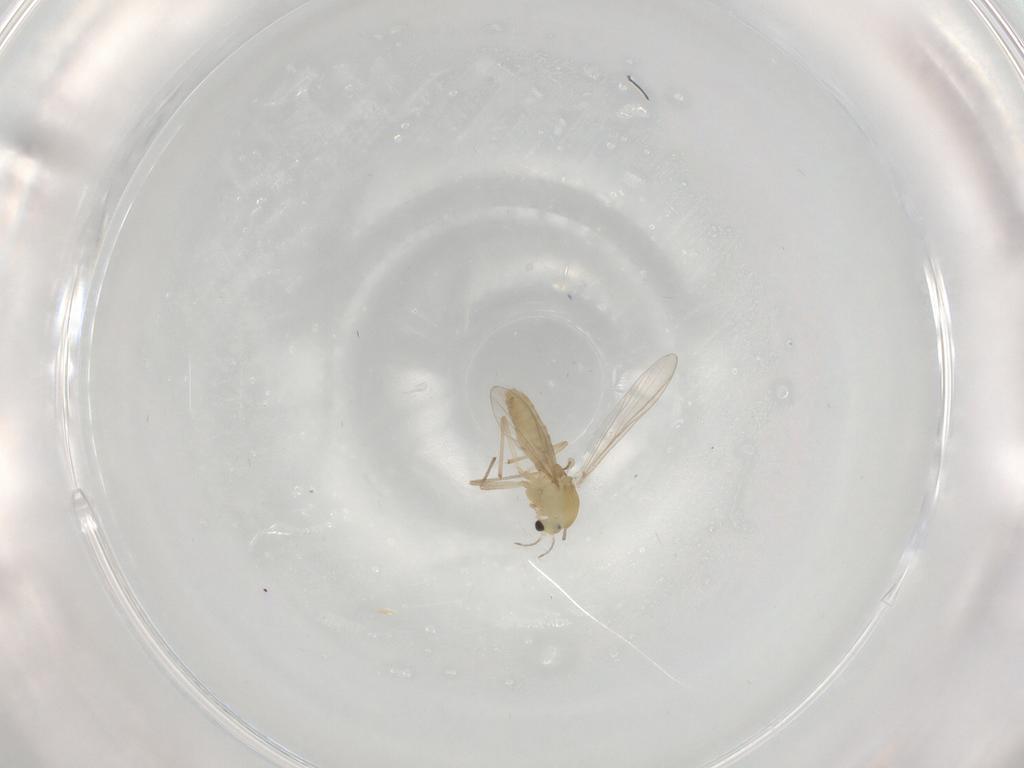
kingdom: Animalia
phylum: Arthropoda
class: Insecta
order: Diptera
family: Chironomidae
